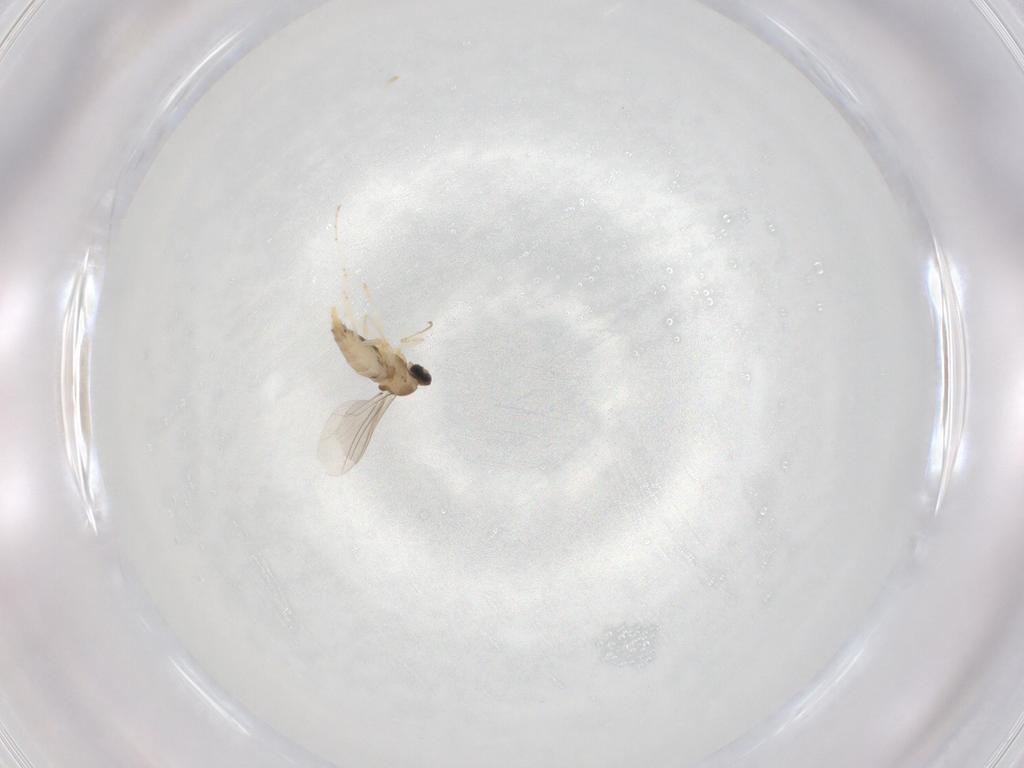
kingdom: Animalia
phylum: Arthropoda
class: Insecta
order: Diptera
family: Cecidomyiidae
